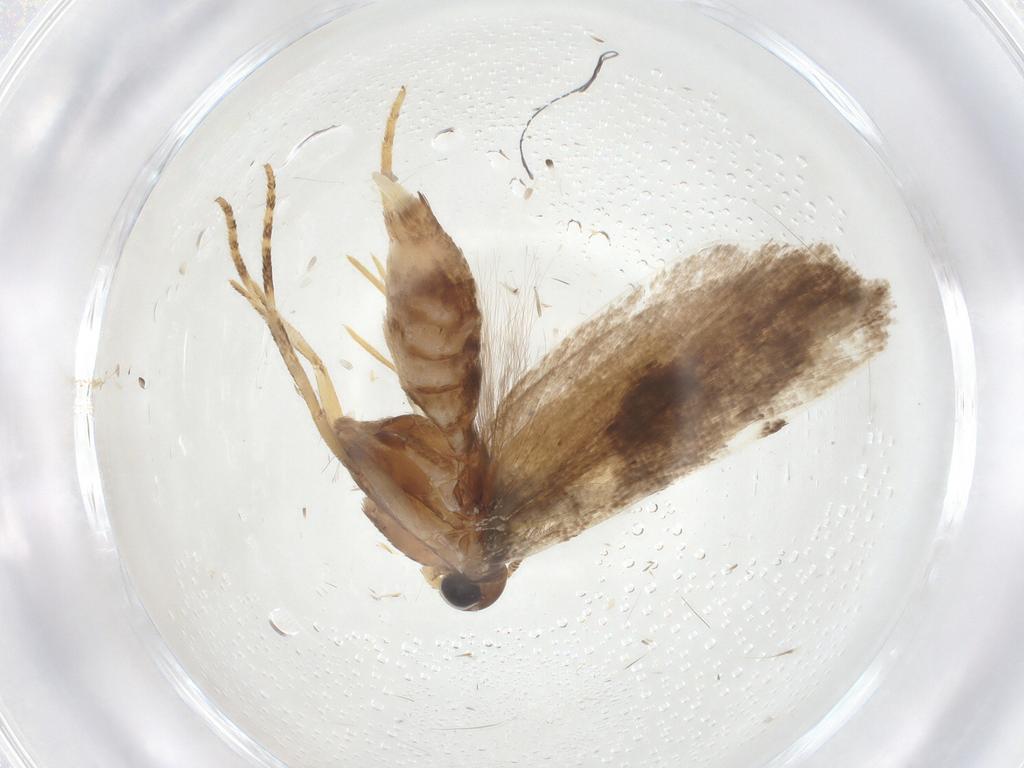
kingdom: Animalia
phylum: Arthropoda
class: Insecta
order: Lepidoptera
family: Gelechiidae
